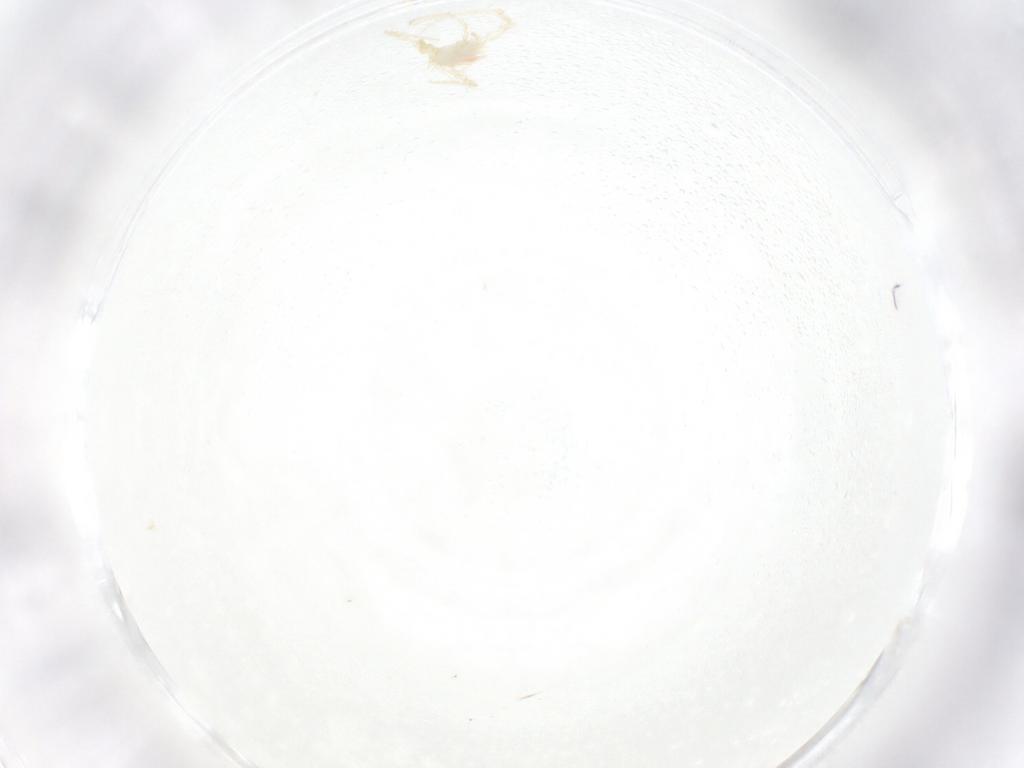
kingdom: Animalia
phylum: Arthropoda
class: Arachnida
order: Trombidiformes
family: Erythraeidae
